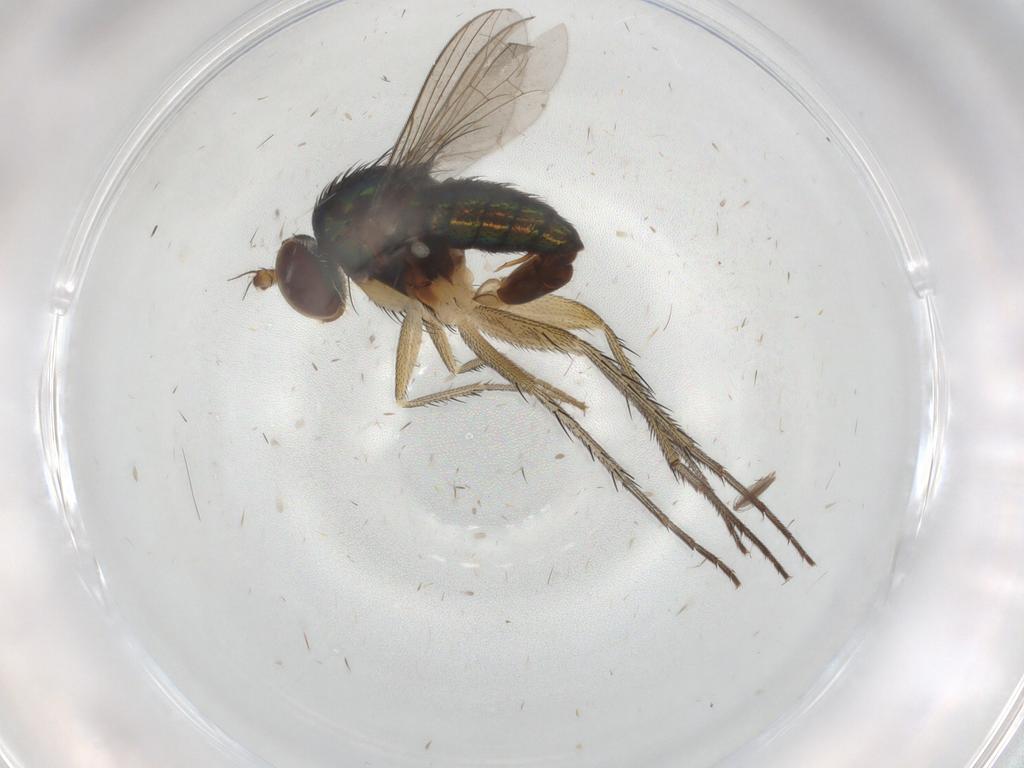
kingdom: Animalia
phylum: Arthropoda
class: Insecta
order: Diptera
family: Dolichopodidae
